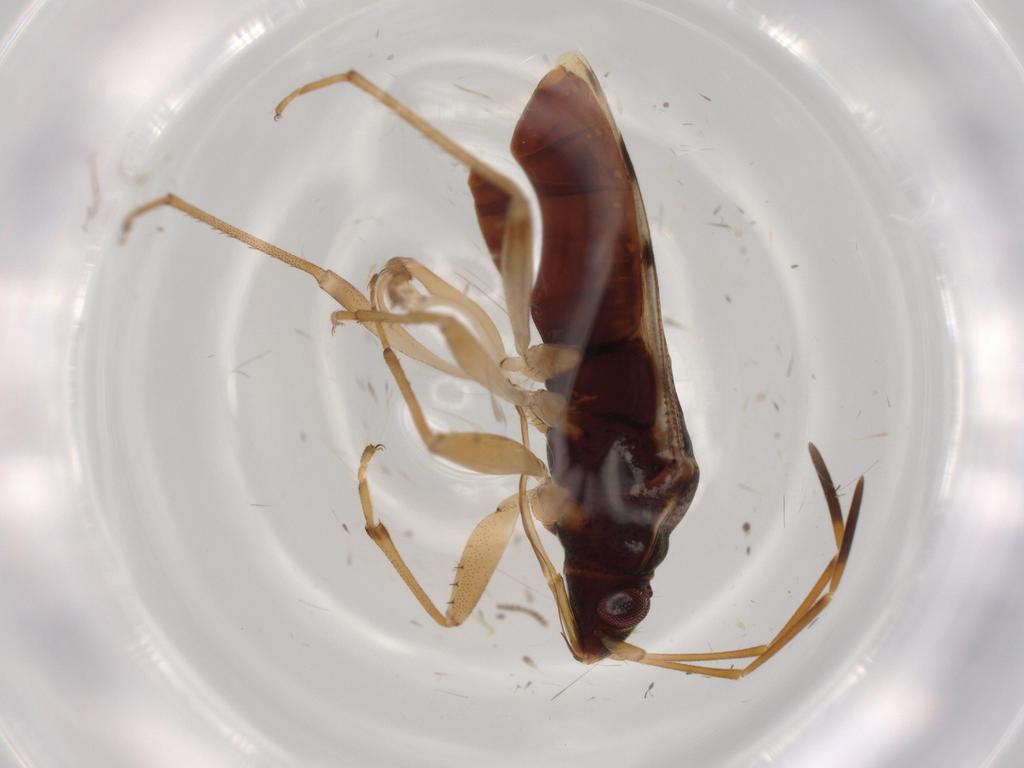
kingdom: Animalia
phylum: Arthropoda
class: Insecta
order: Hemiptera
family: Rhyparochromidae
